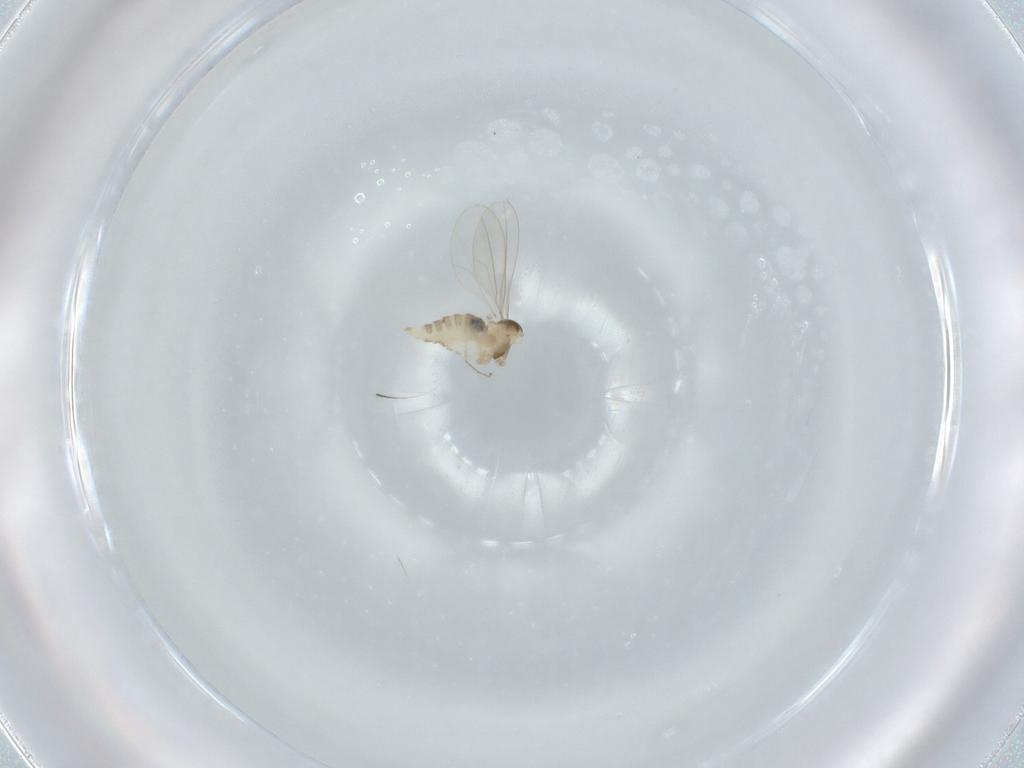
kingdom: Animalia
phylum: Arthropoda
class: Insecta
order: Diptera
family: Cecidomyiidae
